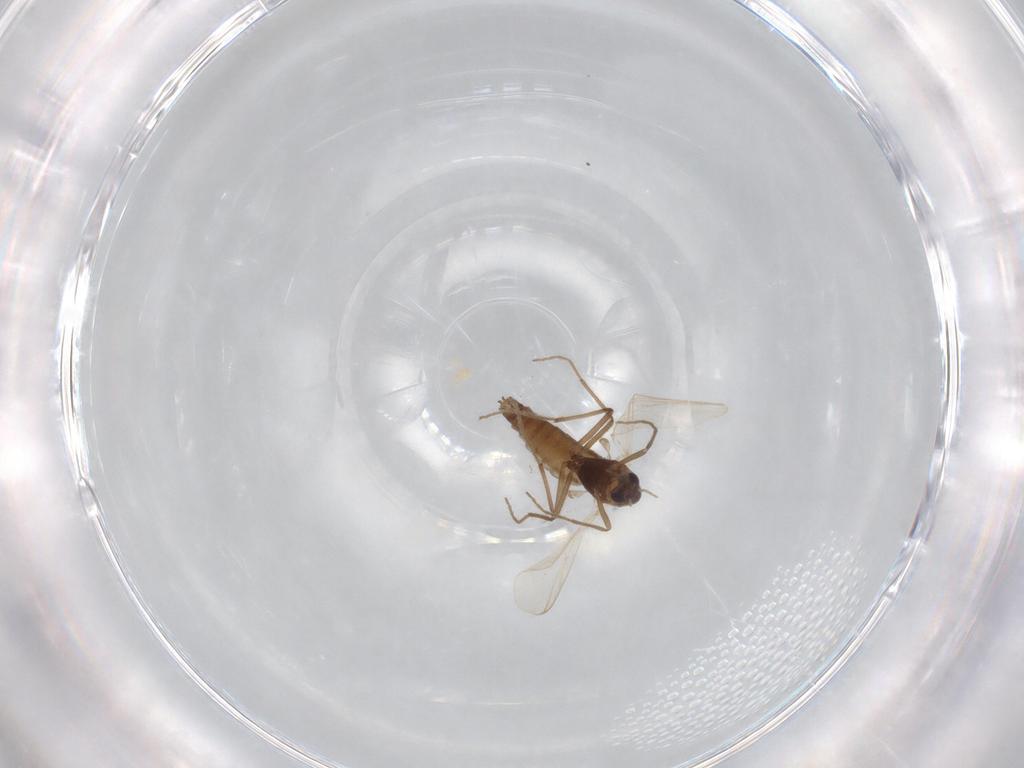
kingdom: Animalia
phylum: Arthropoda
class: Insecta
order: Diptera
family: Chironomidae
